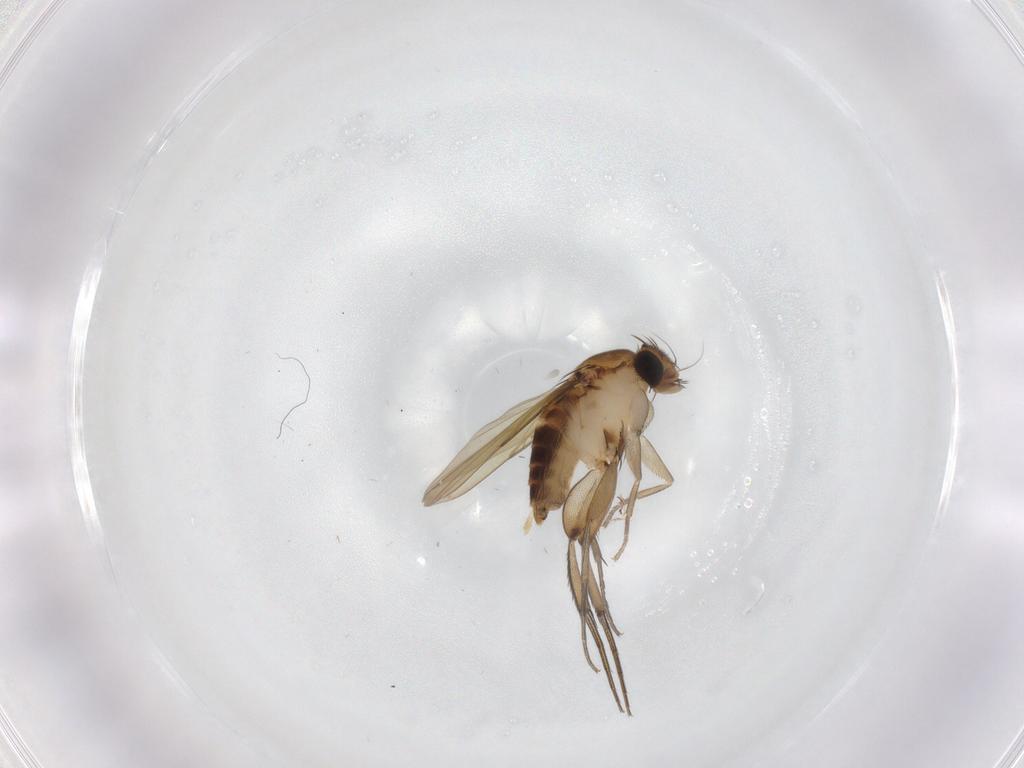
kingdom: Animalia
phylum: Arthropoda
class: Insecta
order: Diptera
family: Phoridae
